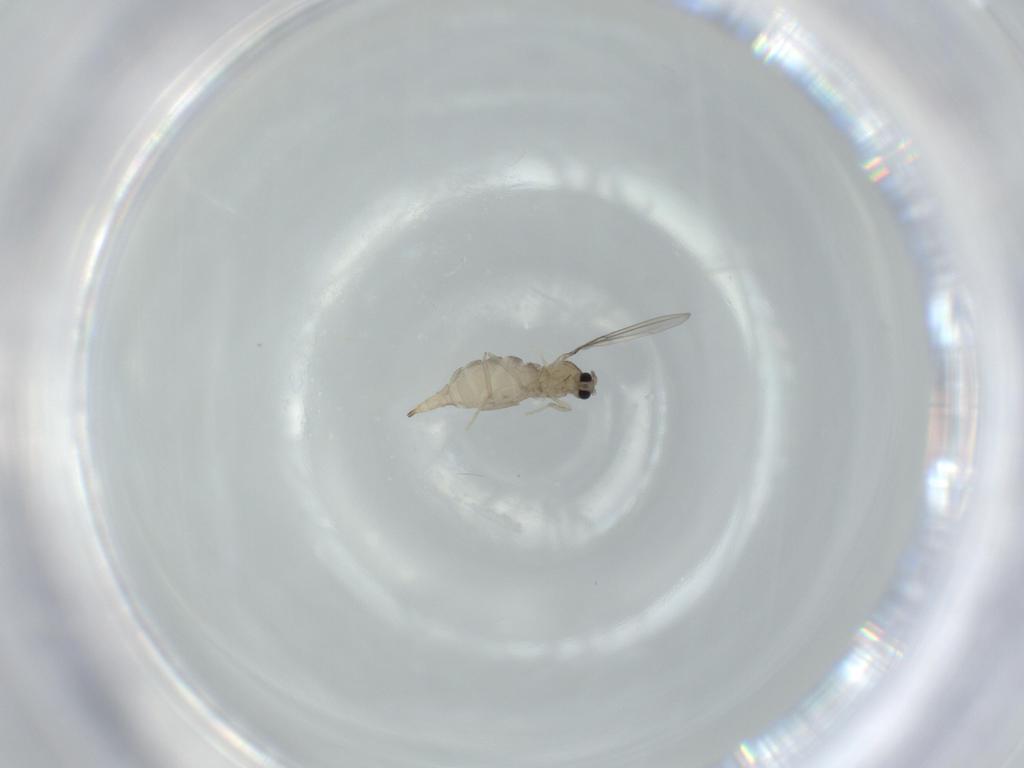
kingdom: Animalia
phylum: Arthropoda
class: Insecta
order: Diptera
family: Cecidomyiidae
